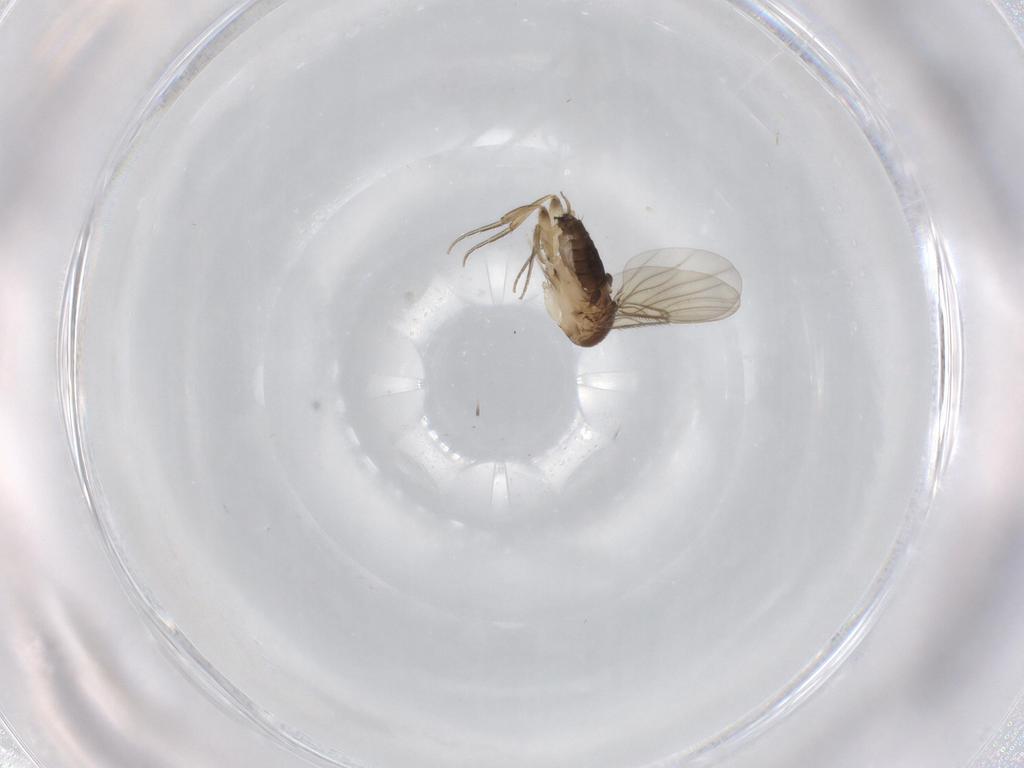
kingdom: Animalia
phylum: Arthropoda
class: Insecta
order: Diptera
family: Phoridae
